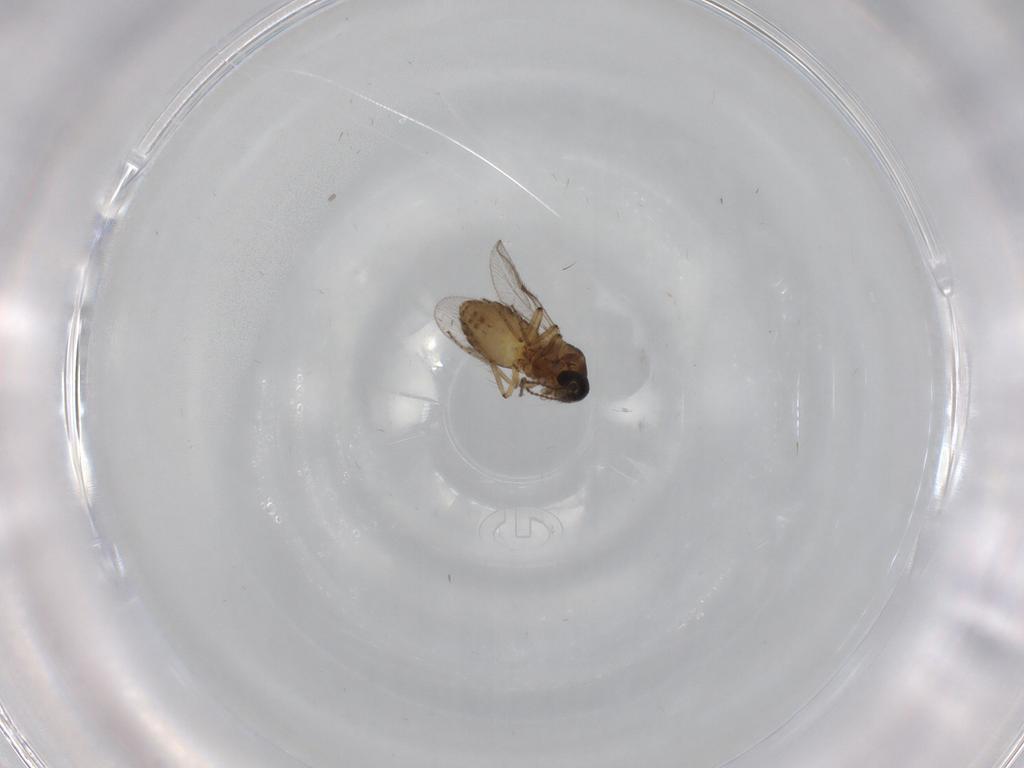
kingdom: Animalia
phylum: Arthropoda
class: Insecta
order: Diptera
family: Ceratopogonidae
